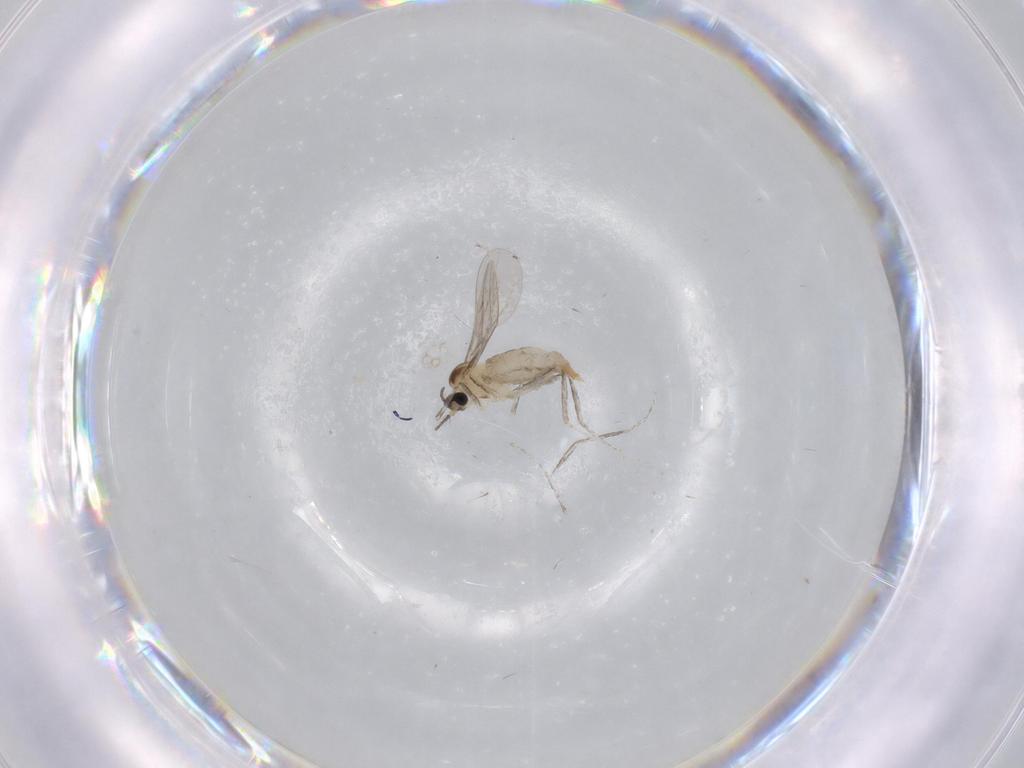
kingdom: Animalia
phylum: Arthropoda
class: Insecta
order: Diptera
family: Cecidomyiidae
